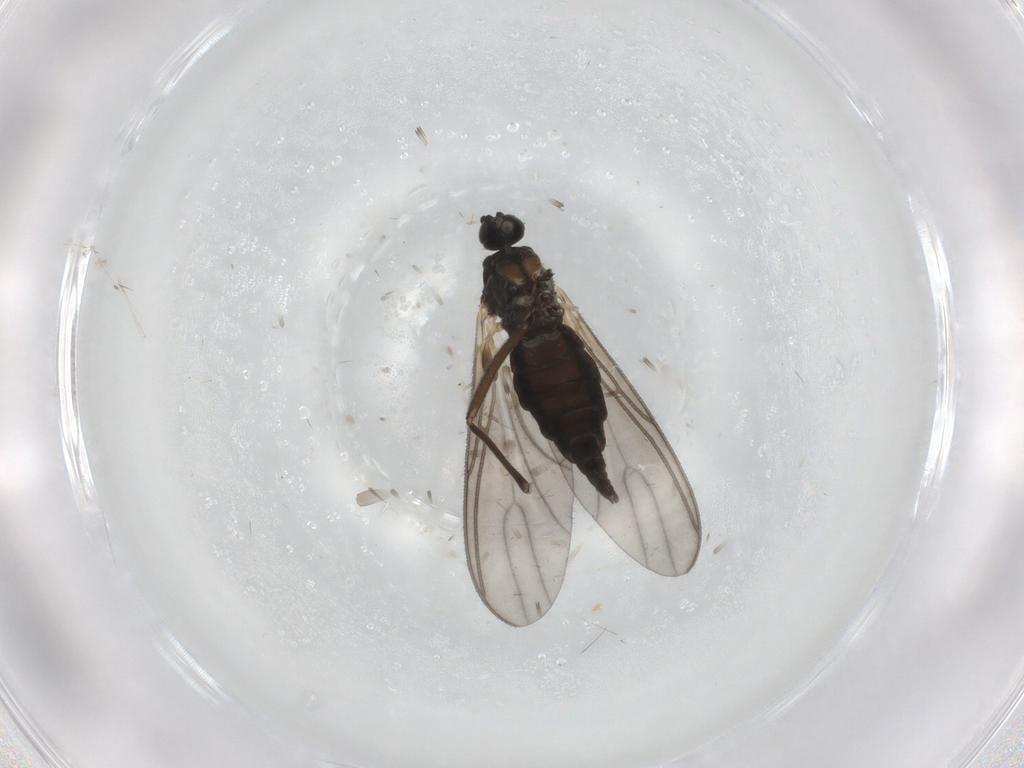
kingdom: Animalia
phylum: Arthropoda
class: Insecta
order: Diptera
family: Sciaridae
